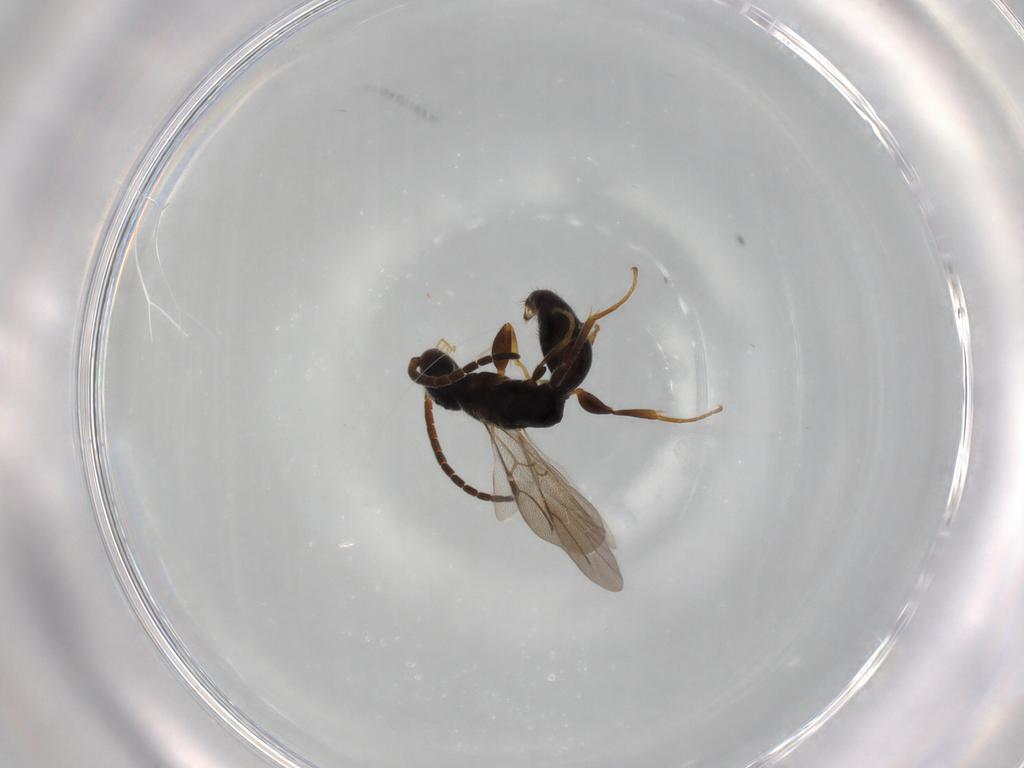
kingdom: Animalia
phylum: Arthropoda
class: Insecta
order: Hymenoptera
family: Bethylidae
